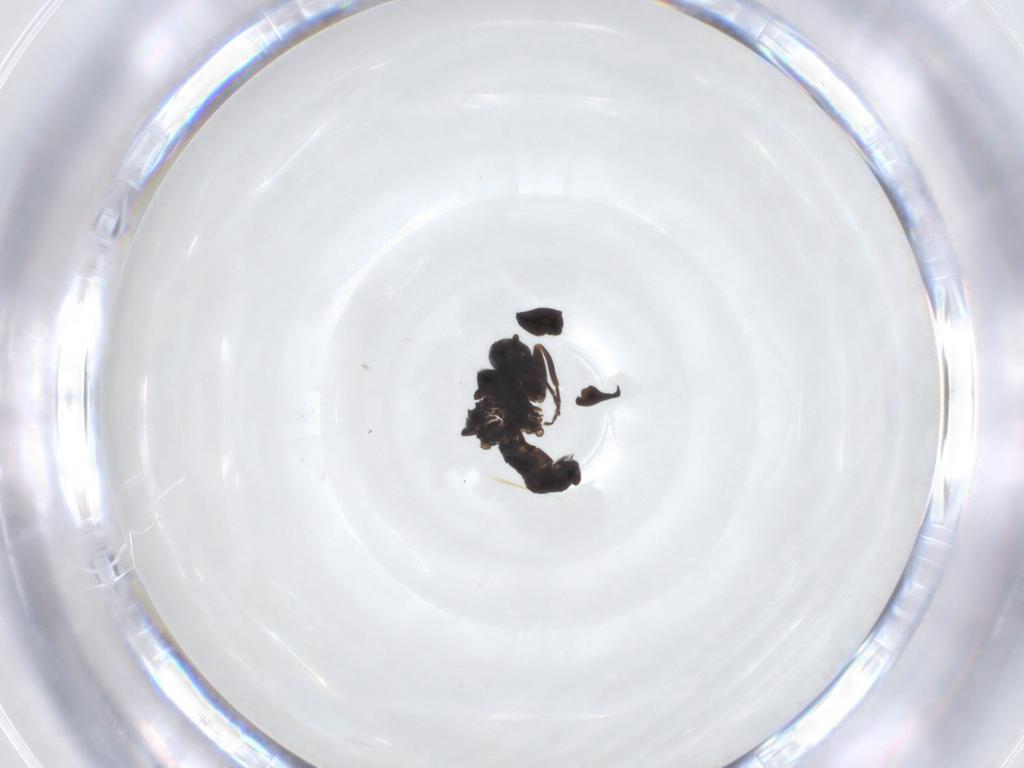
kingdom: Animalia
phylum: Arthropoda
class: Insecta
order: Diptera
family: Hybotidae
